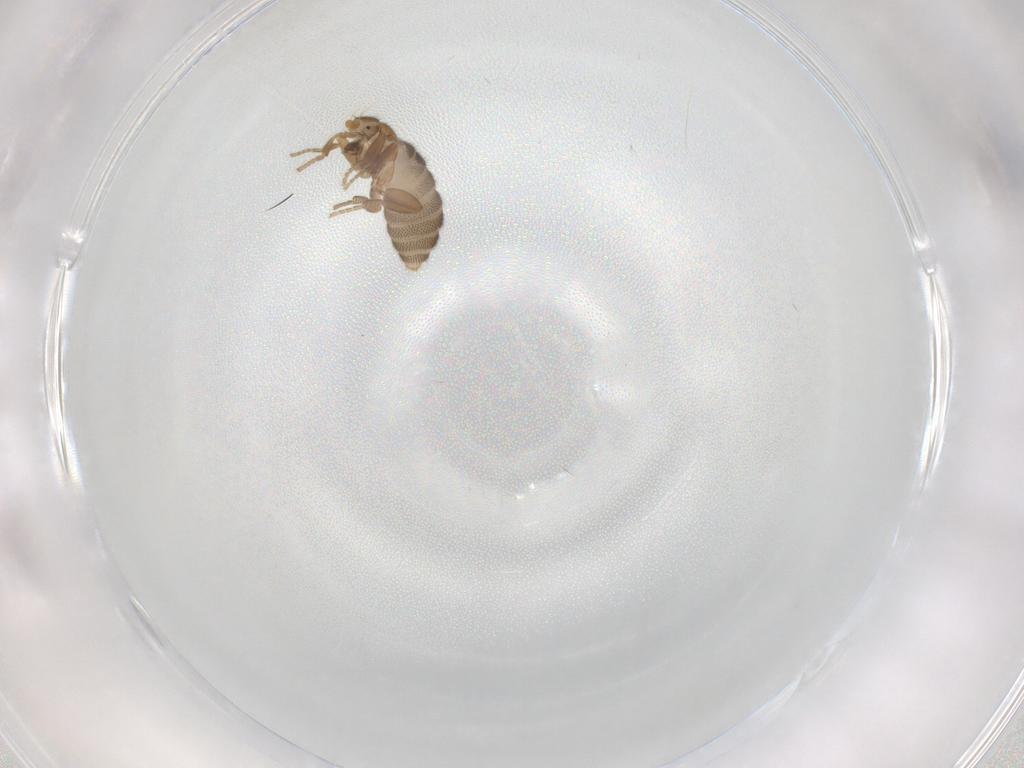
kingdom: Animalia
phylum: Arthropoda
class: Insecta
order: Diptera
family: Sciaridae
